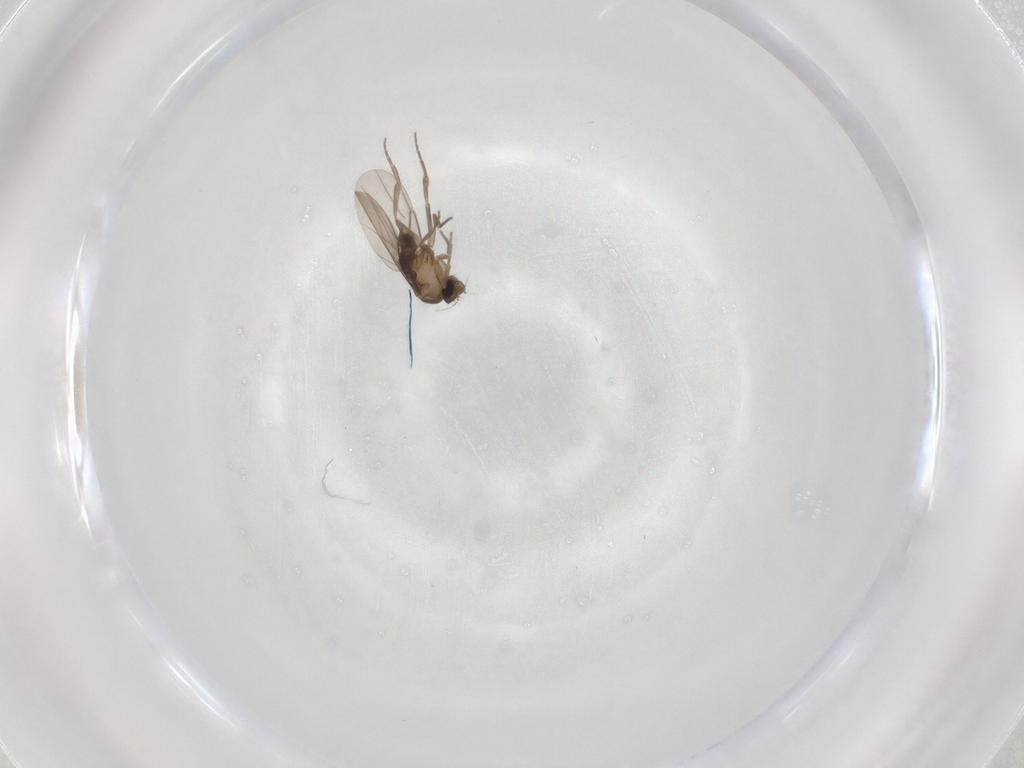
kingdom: Animalia
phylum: Arthropoda
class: Insecta
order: Diptera
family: Phoridae
